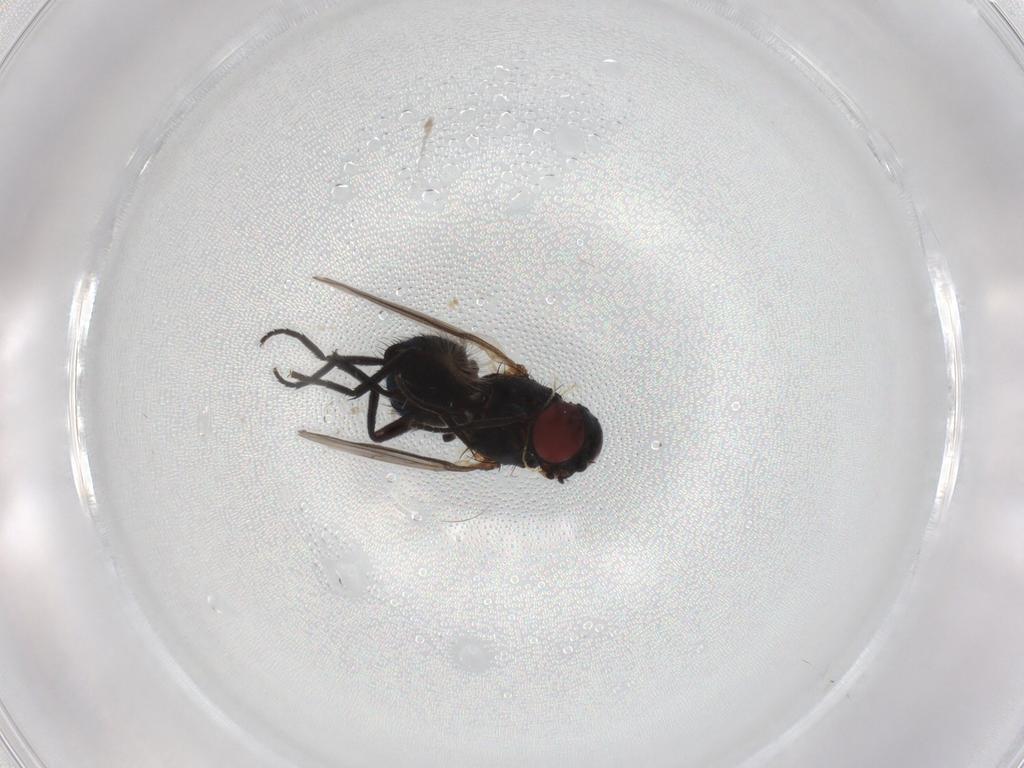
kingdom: Animalia
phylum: Arthropoda
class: Insecta
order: Diptera
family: Agromyzidae
